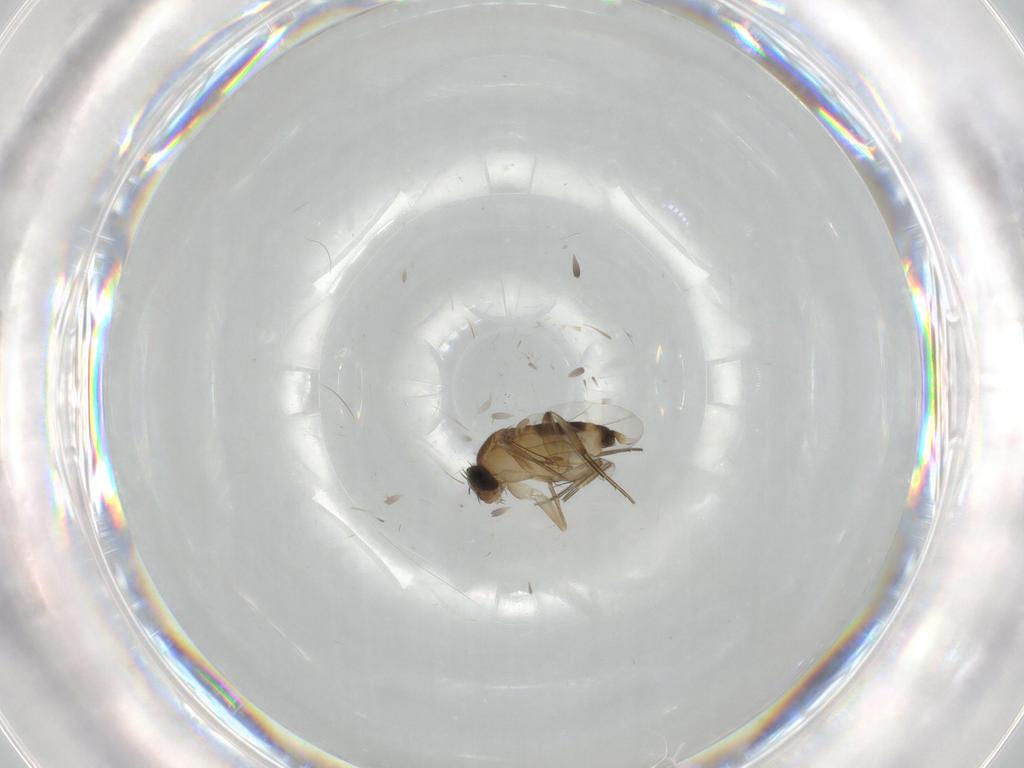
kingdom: Animalia
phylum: Arthropoda
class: Insecta
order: Diptera
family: Phoridae
